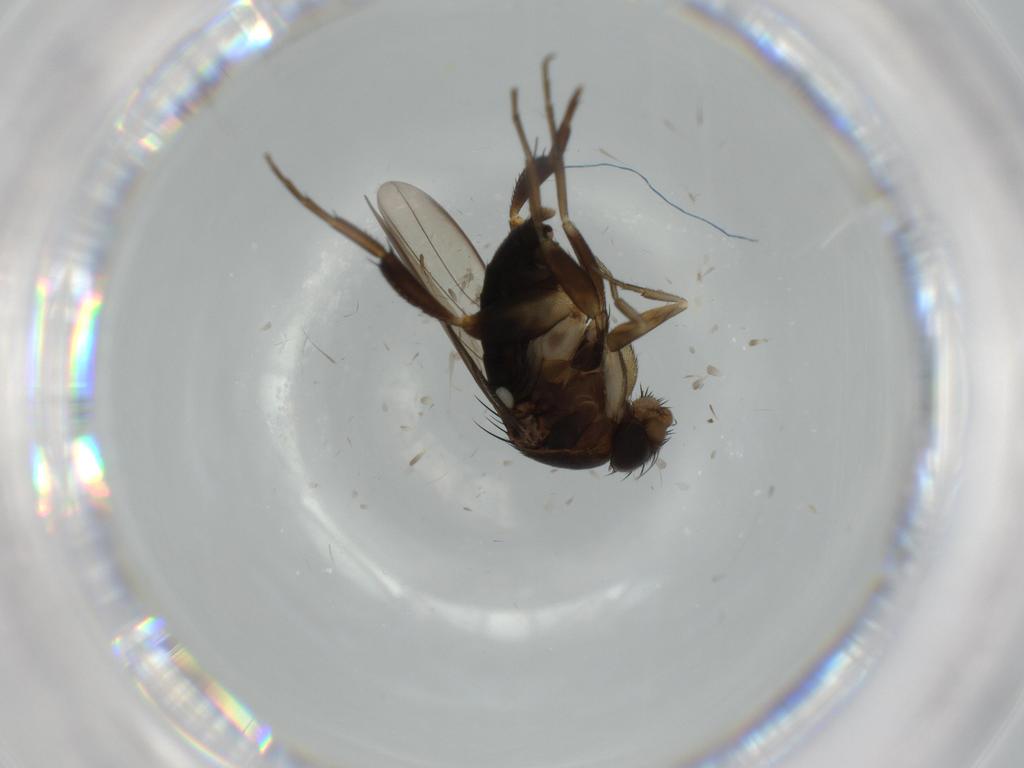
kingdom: Animalia
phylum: Arthropoda
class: Insecta
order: Diptera
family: Phoridae
